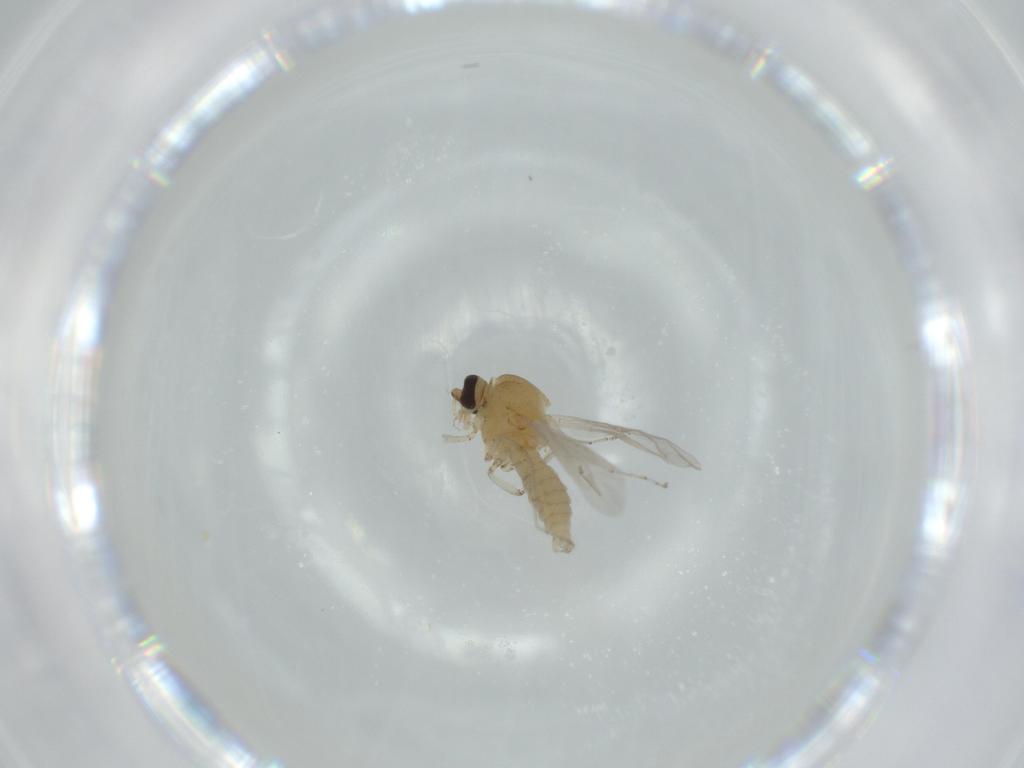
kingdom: Animalia
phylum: Arthropoda
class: Insecta
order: Diptera
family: Ceratopogonidae
